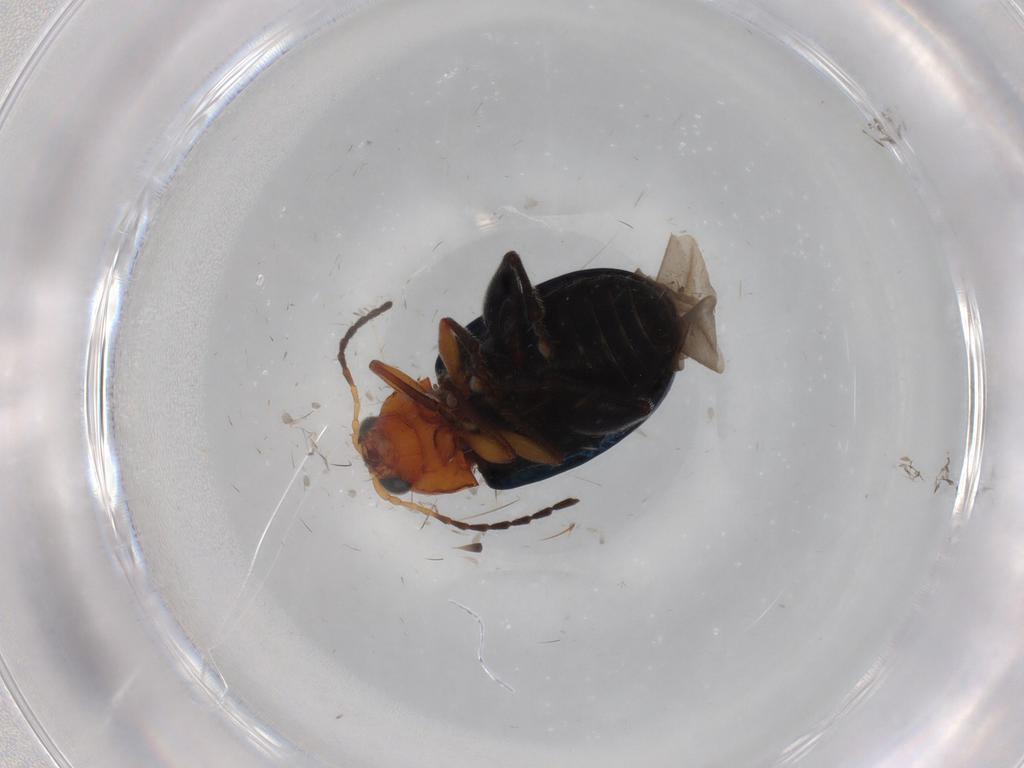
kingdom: Animalia
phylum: Arthropoda
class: Insecta
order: Coleoptera
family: Chrysomelidae
